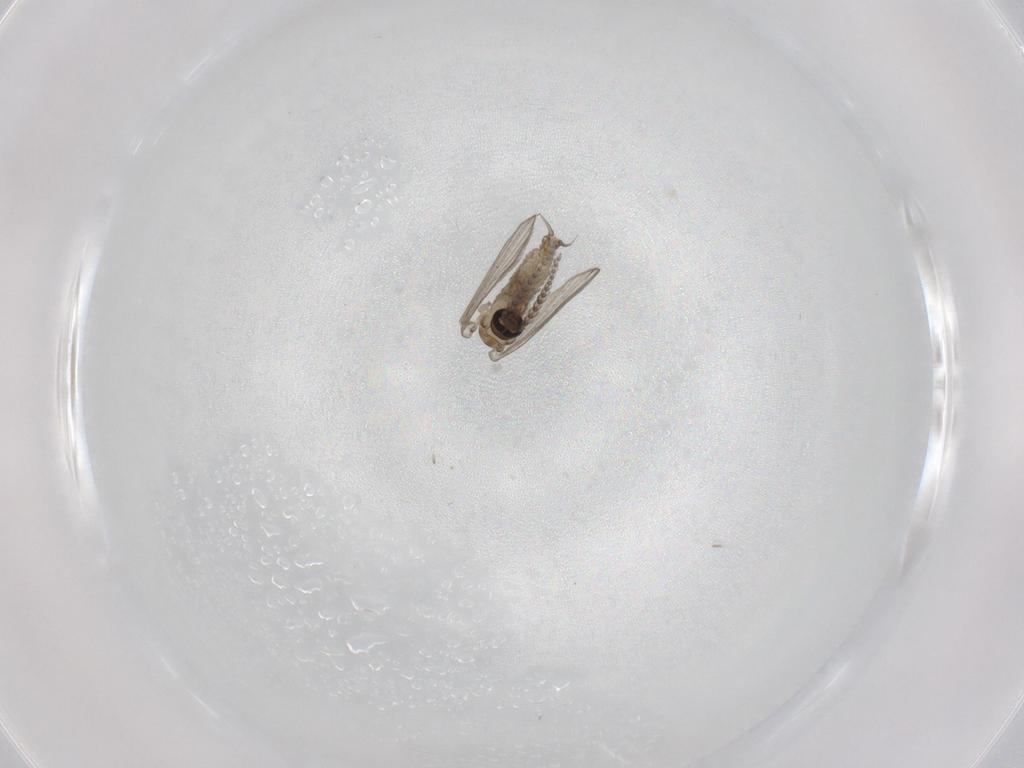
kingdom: Animalia
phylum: Arthropoda
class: Insecta
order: Diptera
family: Psychodidae
